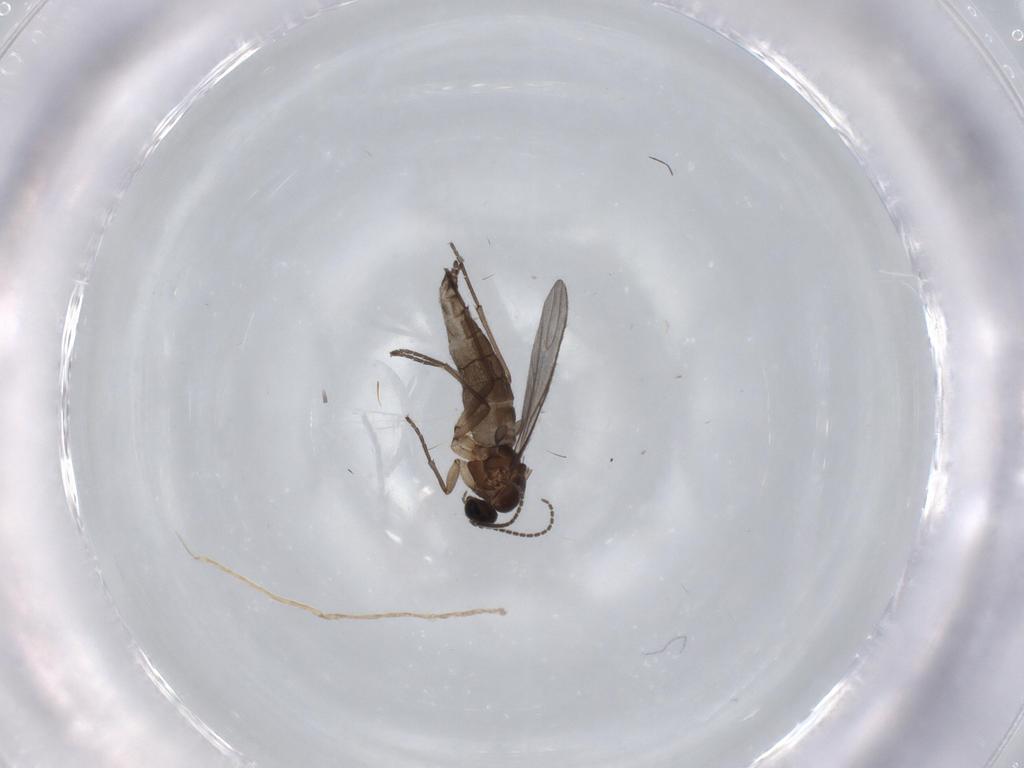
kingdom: Animalia
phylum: Arthropoda
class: Insecta
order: Diptera
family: Sciaridae
